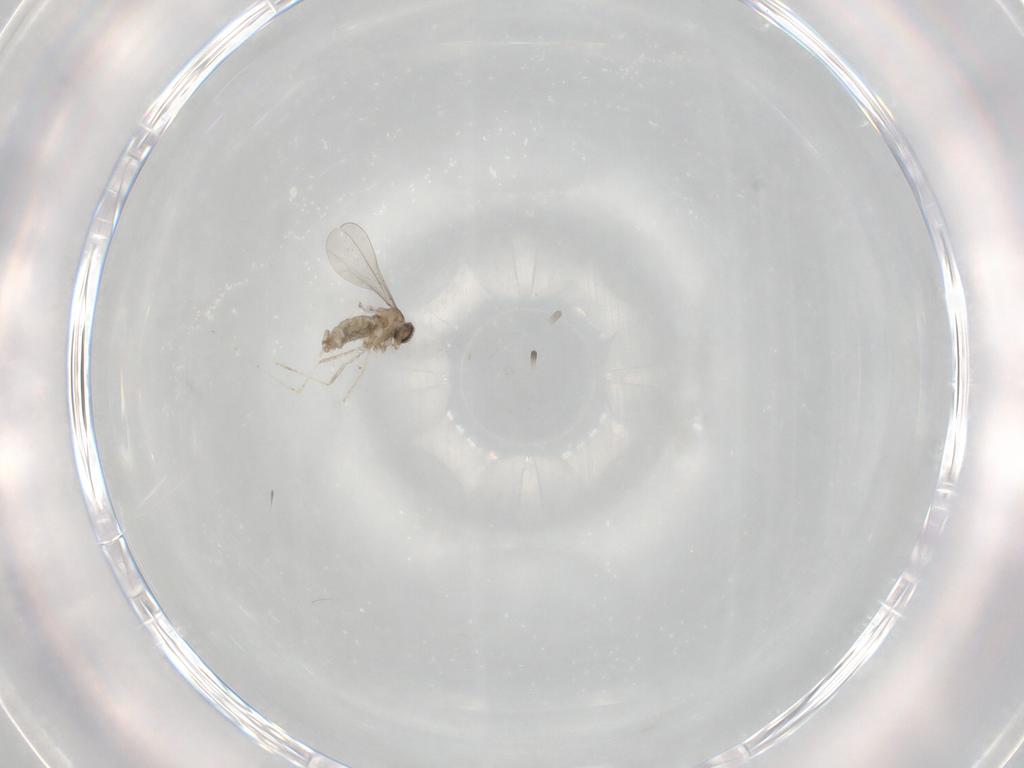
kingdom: Animalia
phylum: Arthropoda
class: Insecta
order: Diptera
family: Cecidomyiidae
